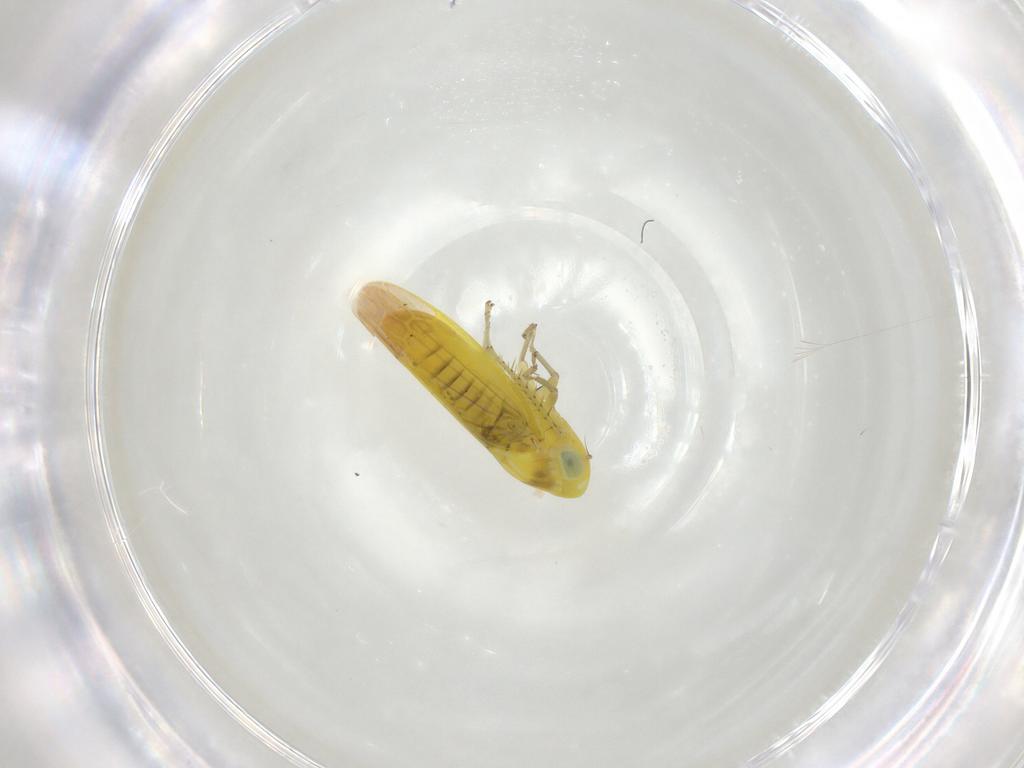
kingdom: Animalia
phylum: Arthropoda
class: Insecta
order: Hemiptera
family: Cicadellidae
